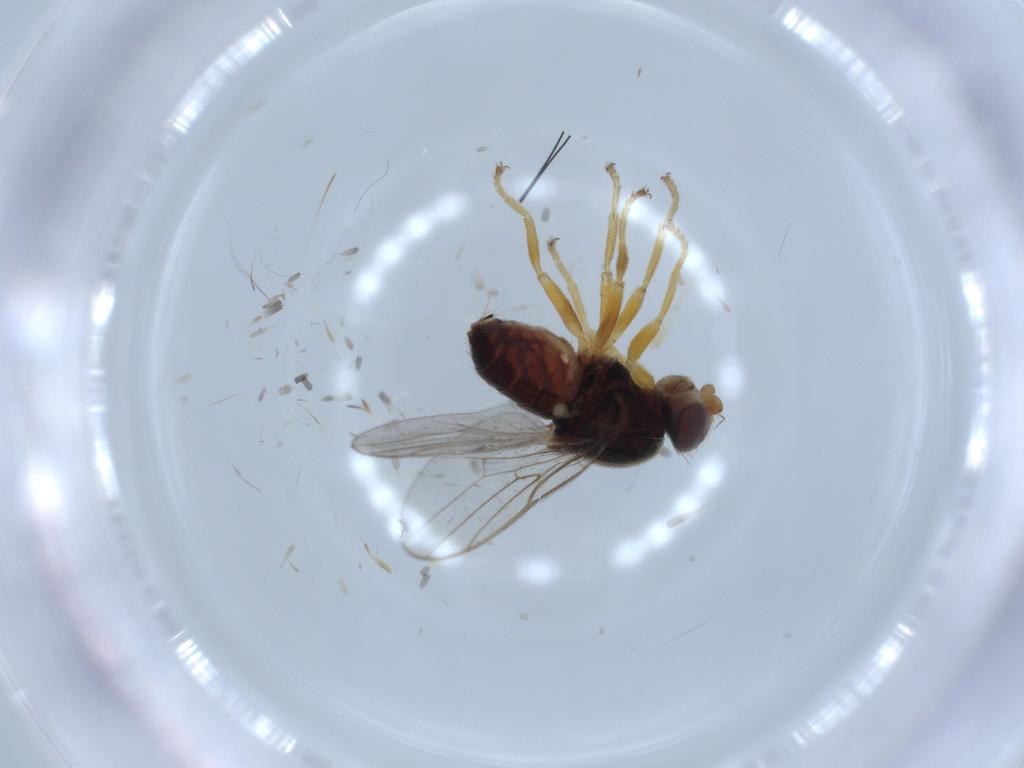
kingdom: Animalia
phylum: Arthropoda
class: Insecta
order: Diptera
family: Chloropidae
